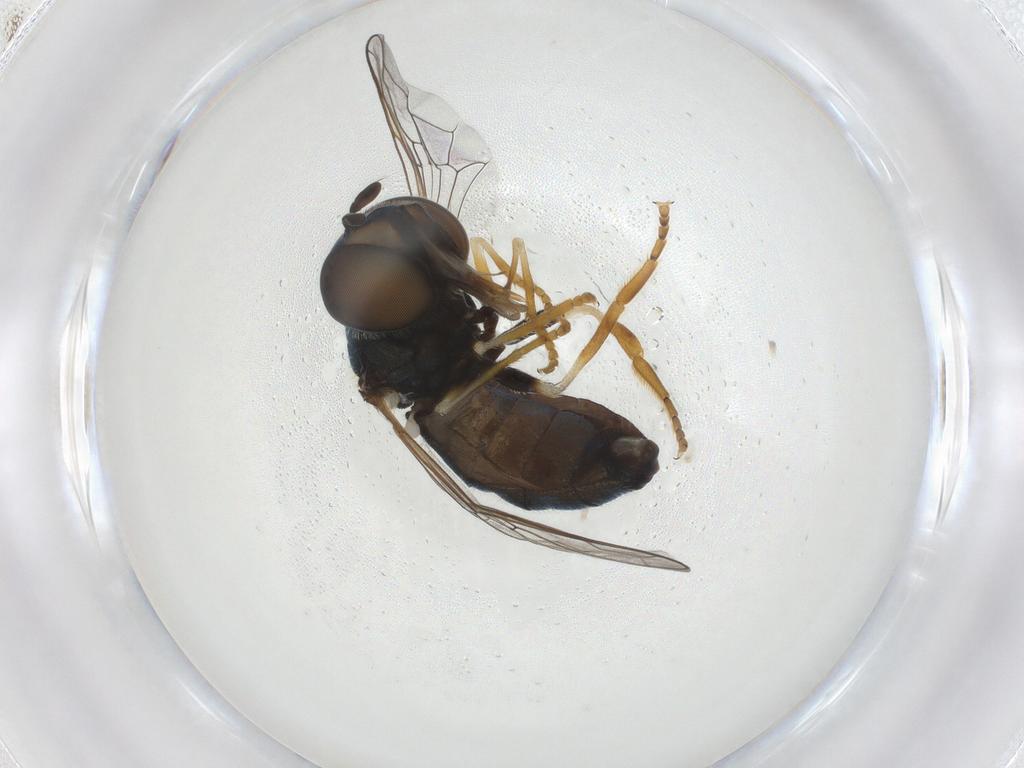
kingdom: Animalia
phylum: Arthropoda
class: Insecta
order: Diptera
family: Syrphidae
